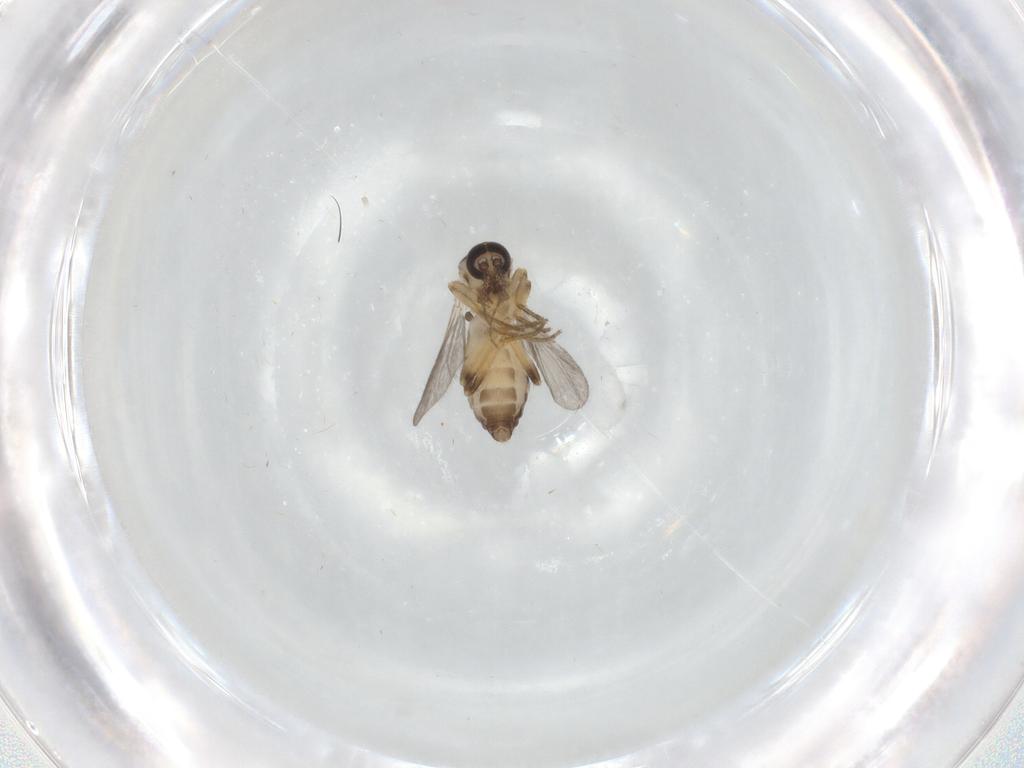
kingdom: Animalia
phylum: Arthropoda
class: Insecta
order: Diptera
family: Ceratopogonidae
